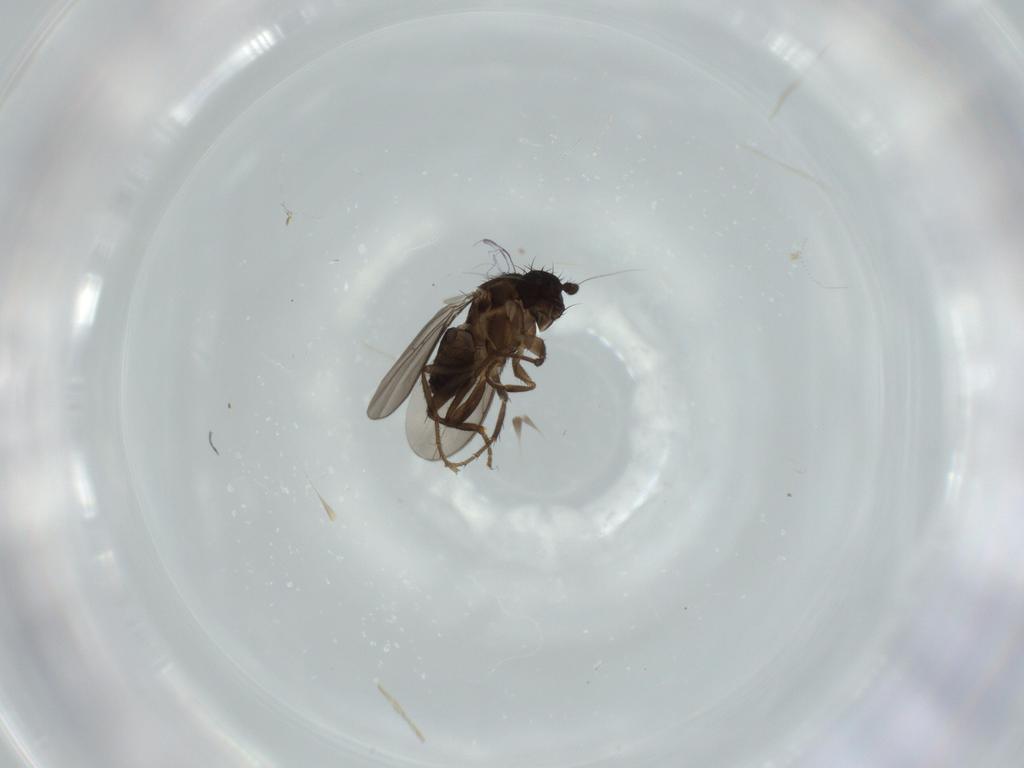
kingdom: Animalia
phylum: Arthropoda
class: Insecta
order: Diptera
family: Sphaeroceridae
